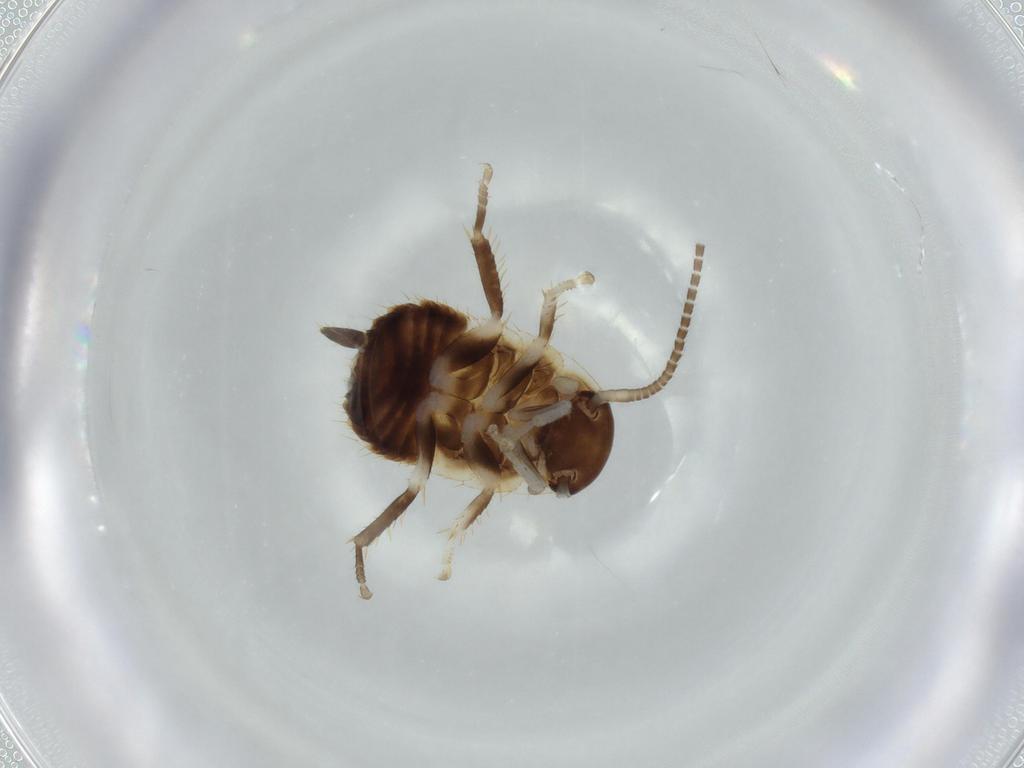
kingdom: Animalia
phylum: Arthropoda
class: Insecta
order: Blattodea
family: Ectobiidae
